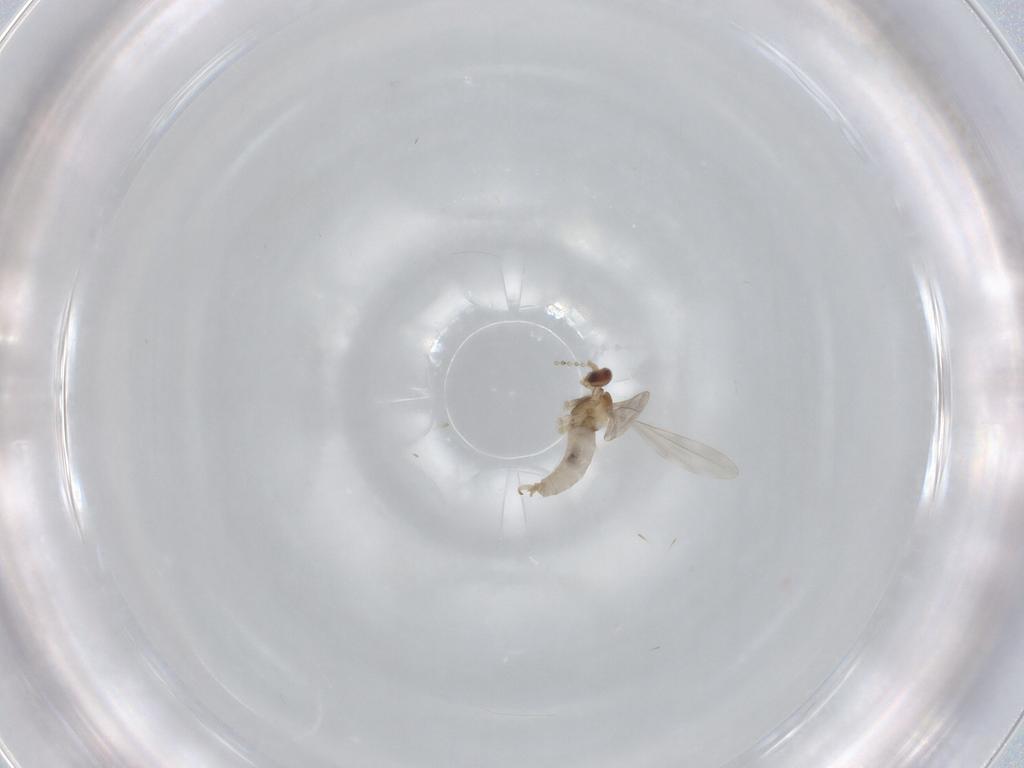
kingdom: Animalia
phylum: Arthropoda
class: Insecta
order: Diptera
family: Cecidomyiidae
